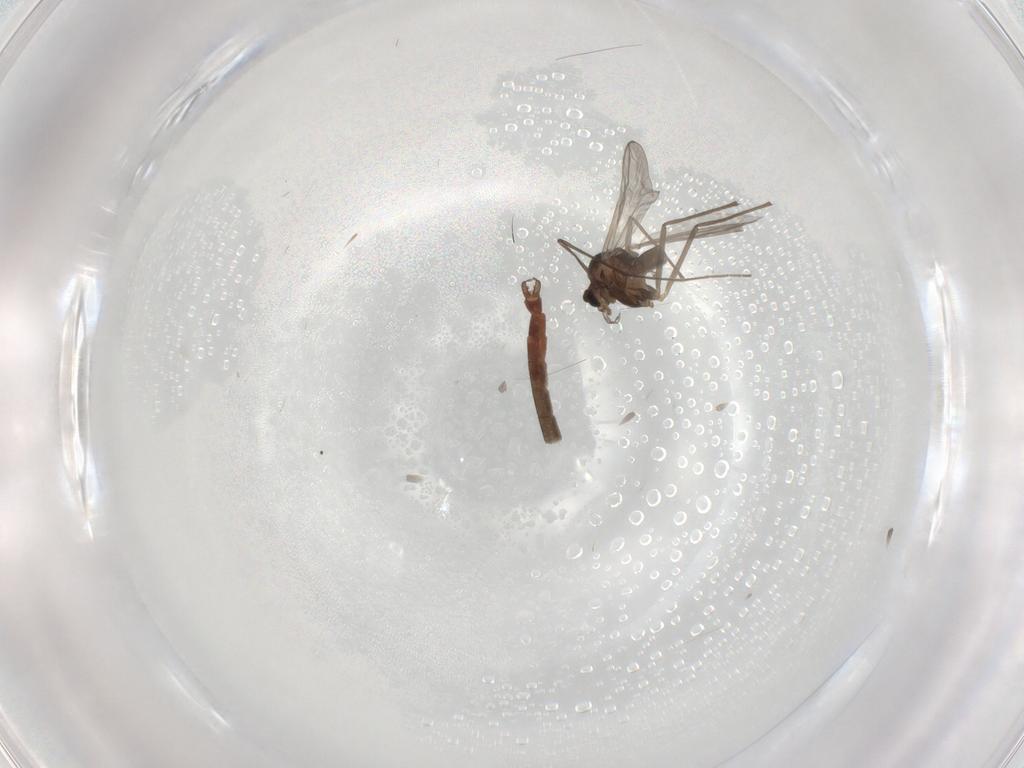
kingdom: Animalia
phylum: Arthropoda
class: Insecta
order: Diptera
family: Chironomidae
